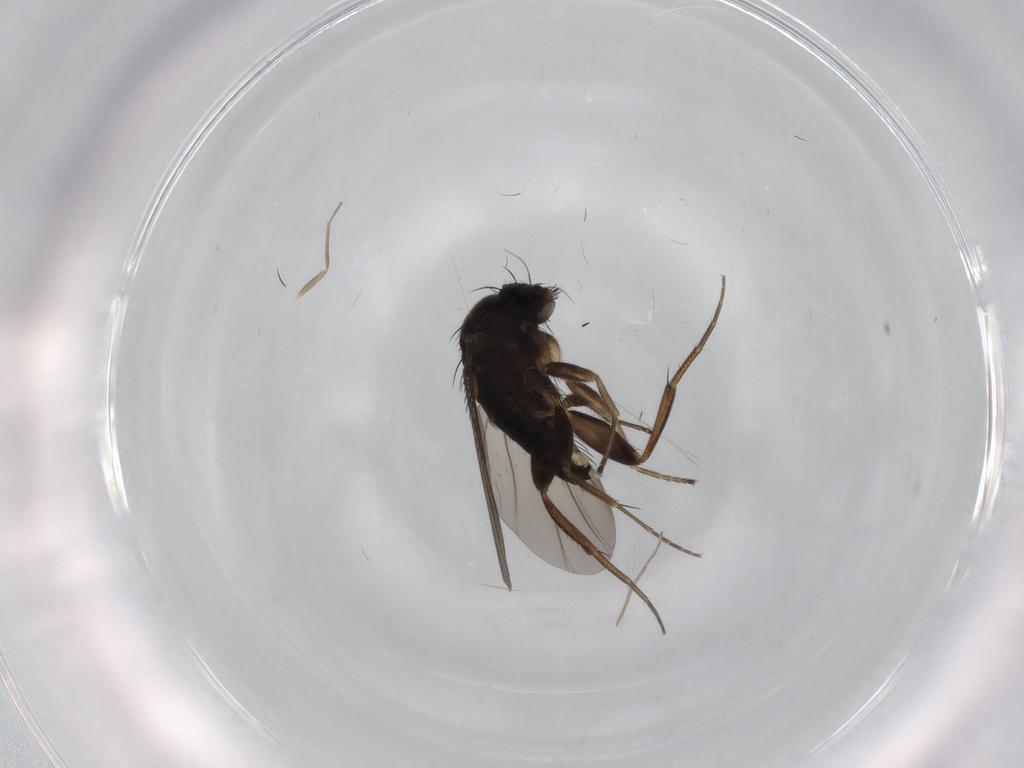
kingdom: Animalia
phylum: Arthropoda
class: Insecta
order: Diptera
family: Phoridae
